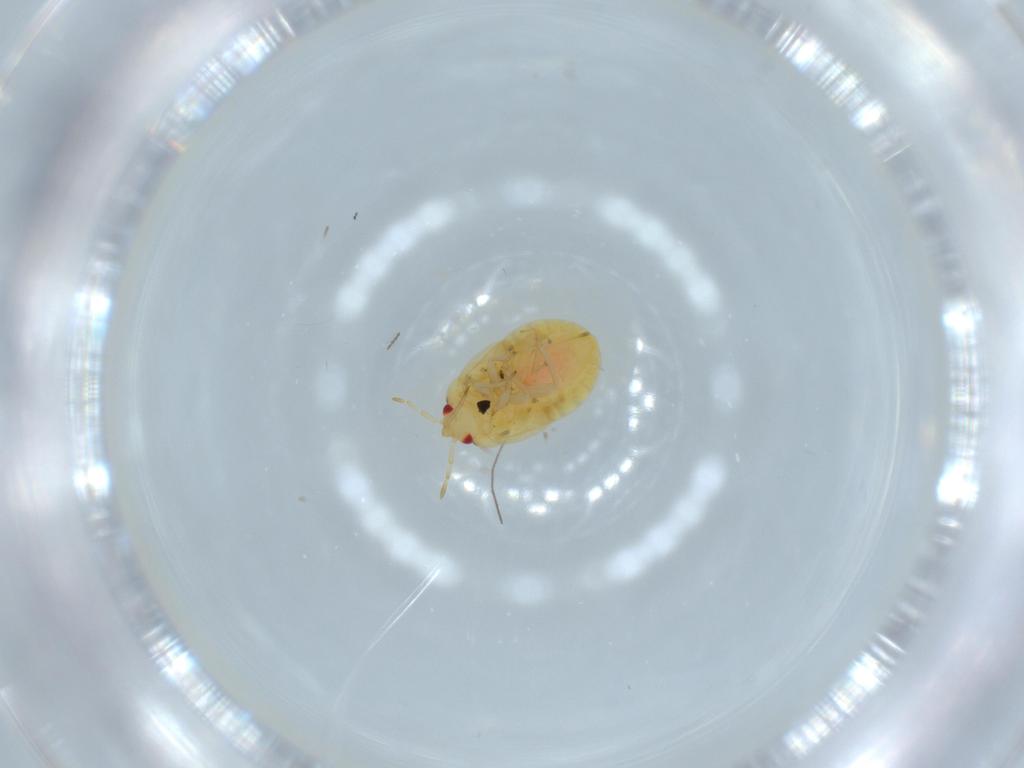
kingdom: Animalia
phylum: Arthropoda
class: Insecta
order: Hemiptera
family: Anthocoridae
